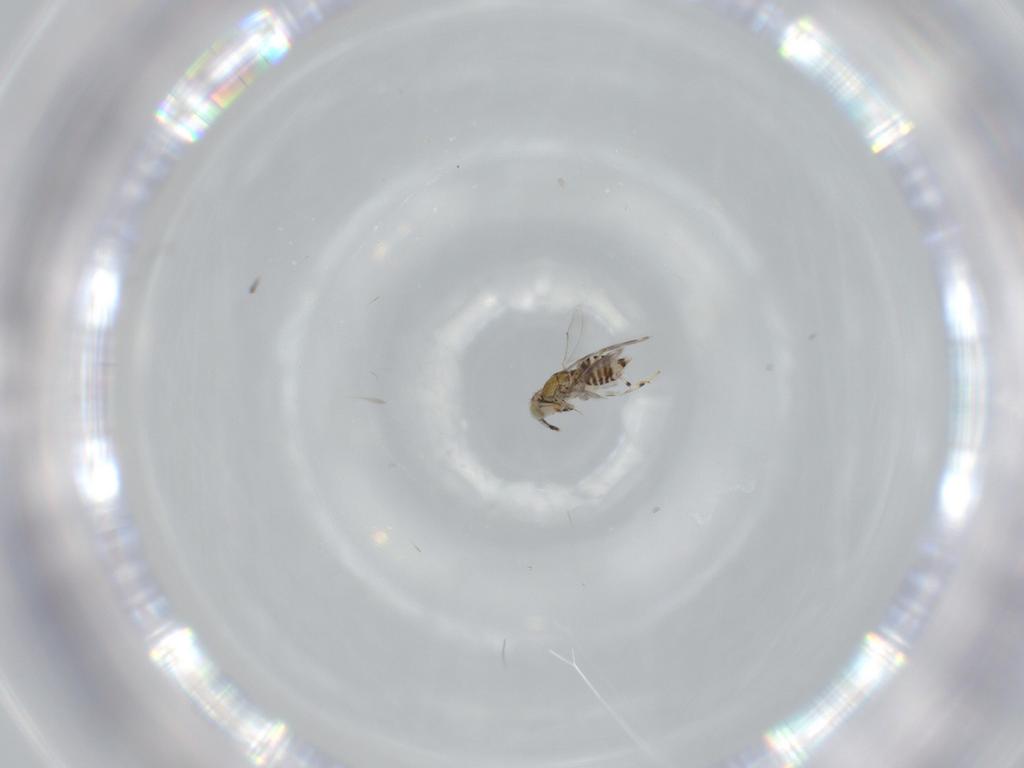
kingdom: Animalia
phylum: Arthropoda
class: Insecta
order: Hymenoptera
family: Aphelinidae
